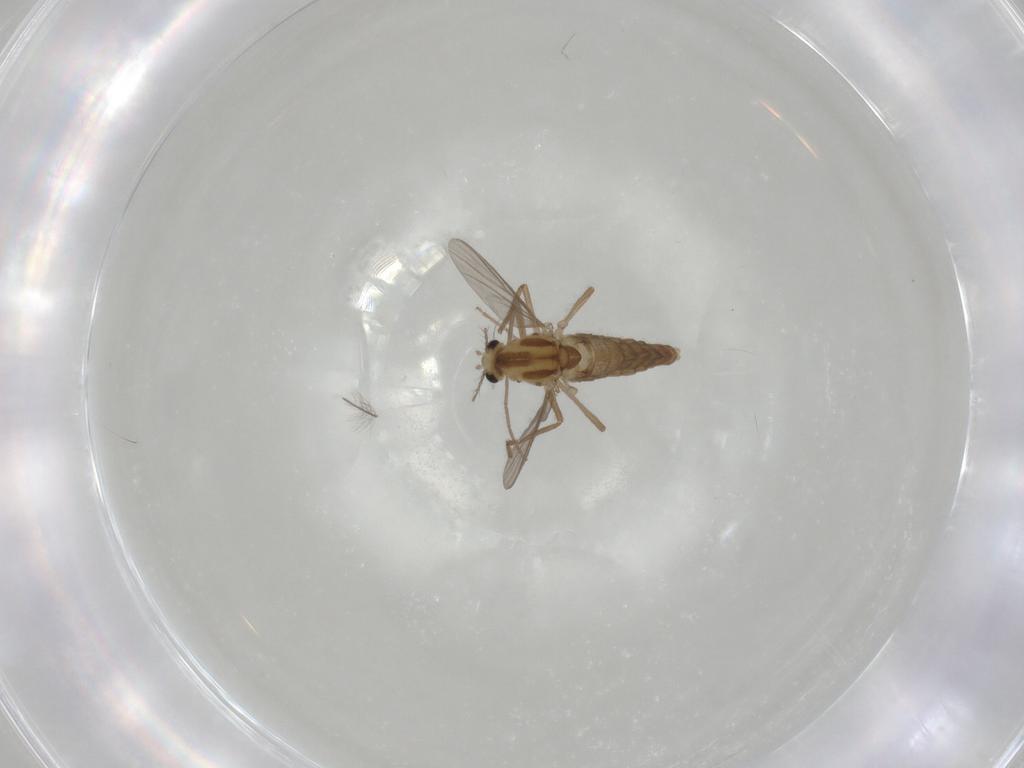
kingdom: Animalia
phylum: Arthropoda
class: Insecta
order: Diptera
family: Chironomidae
